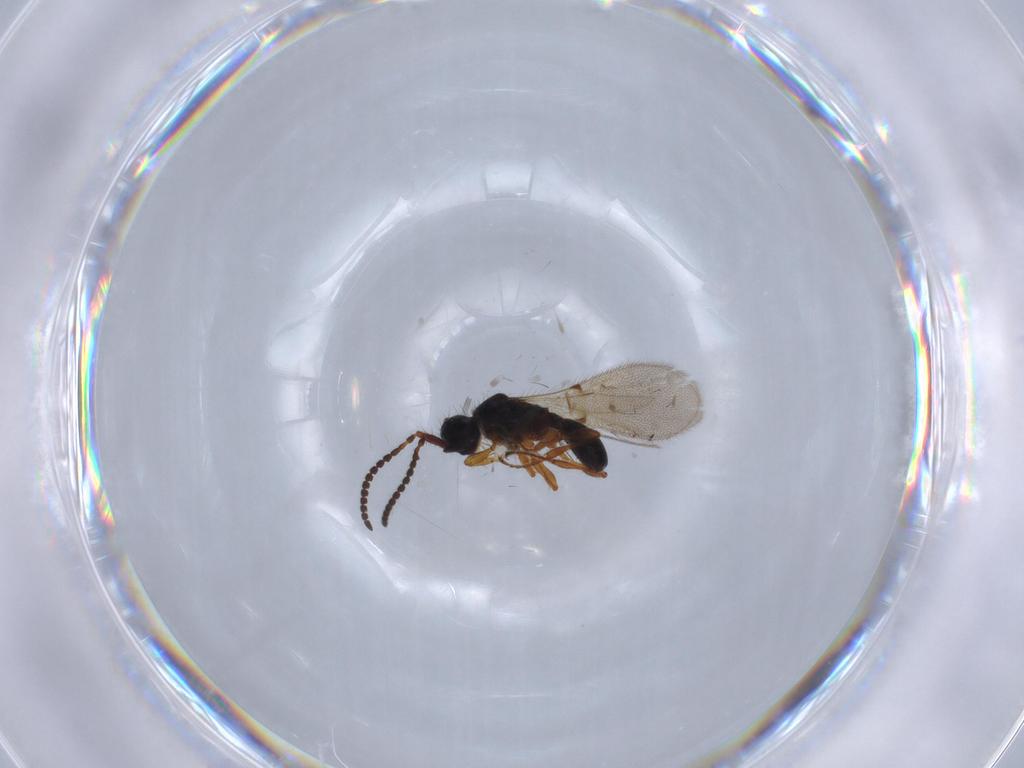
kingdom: Animalia
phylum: Arthropoda
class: Insecta
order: Hymenoptera
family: Diapriidae
